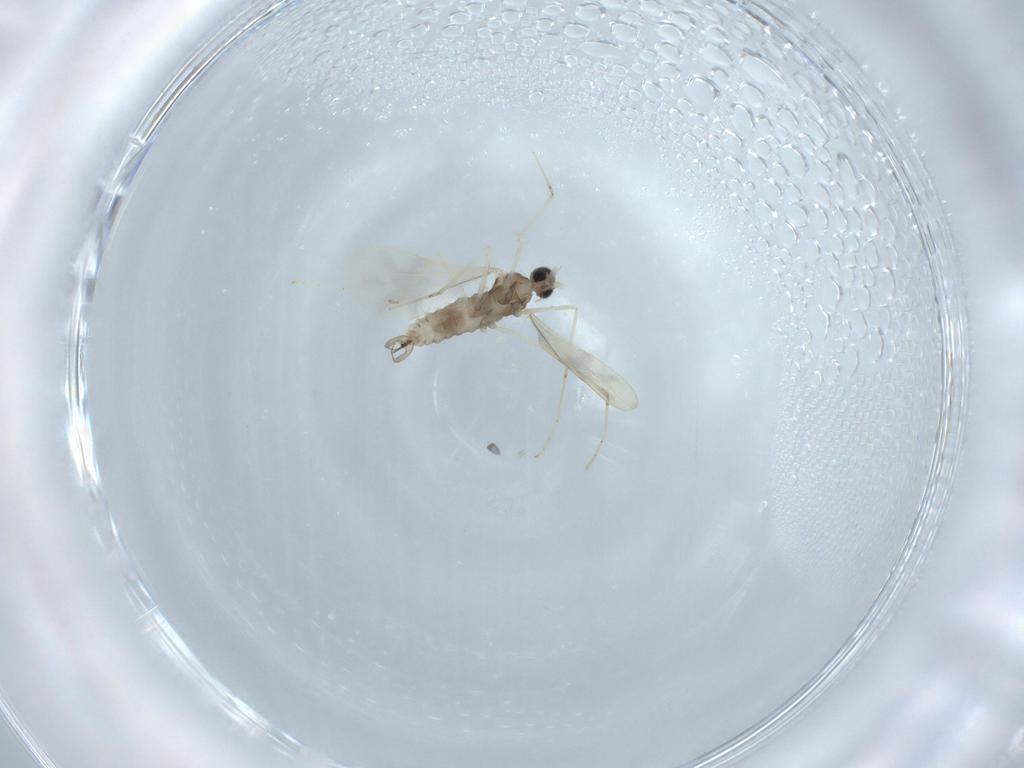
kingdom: Animalia
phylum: Arthropoda
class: Insecta
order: Diptera
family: Cecidomyiidae
